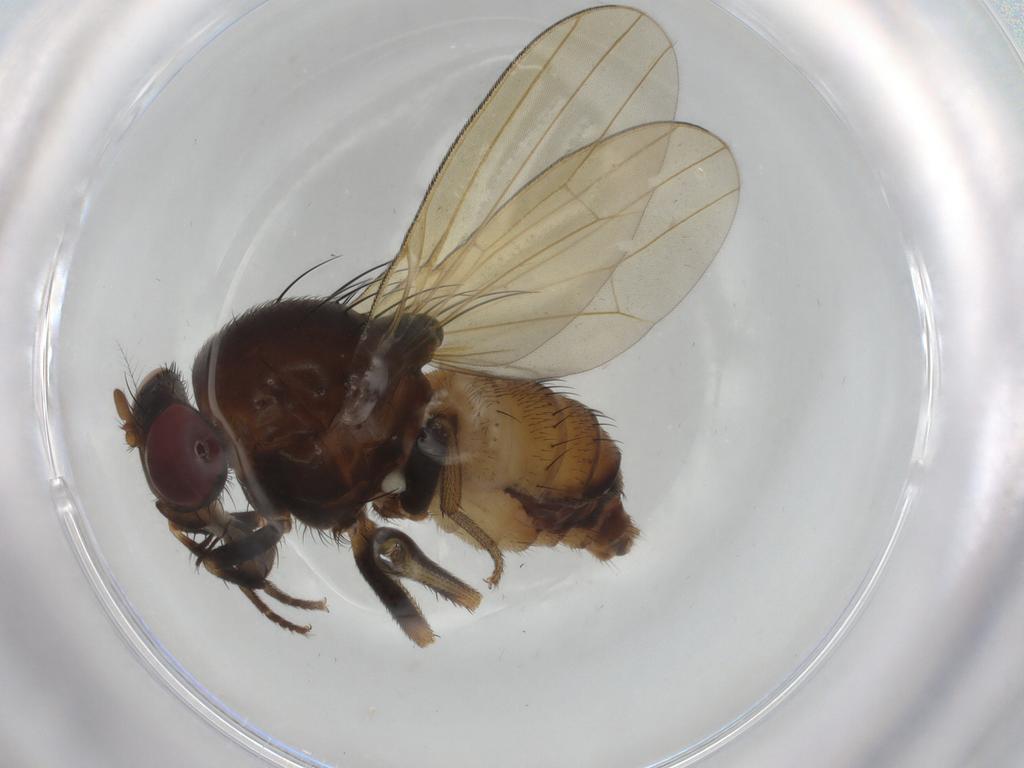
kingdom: Animalia
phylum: Arthropoda
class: Insecta
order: Diptera
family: Lauxaniidae
